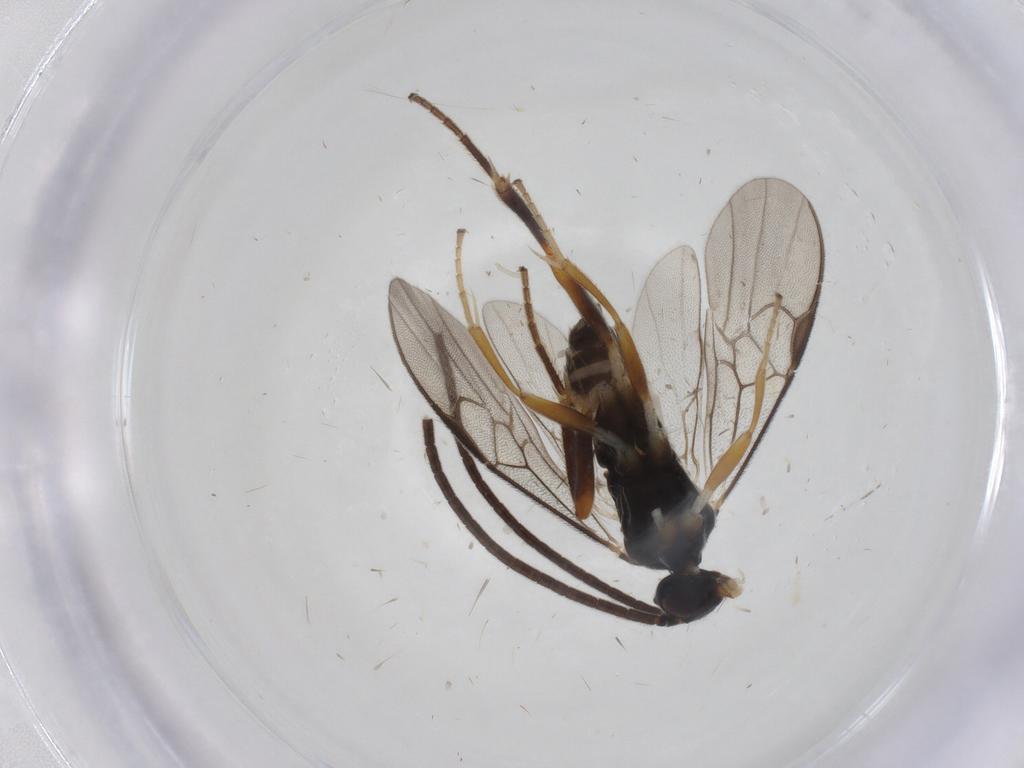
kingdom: Animalia
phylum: Arthropoda
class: Insecta
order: Hymenoptera
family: Braconidae
